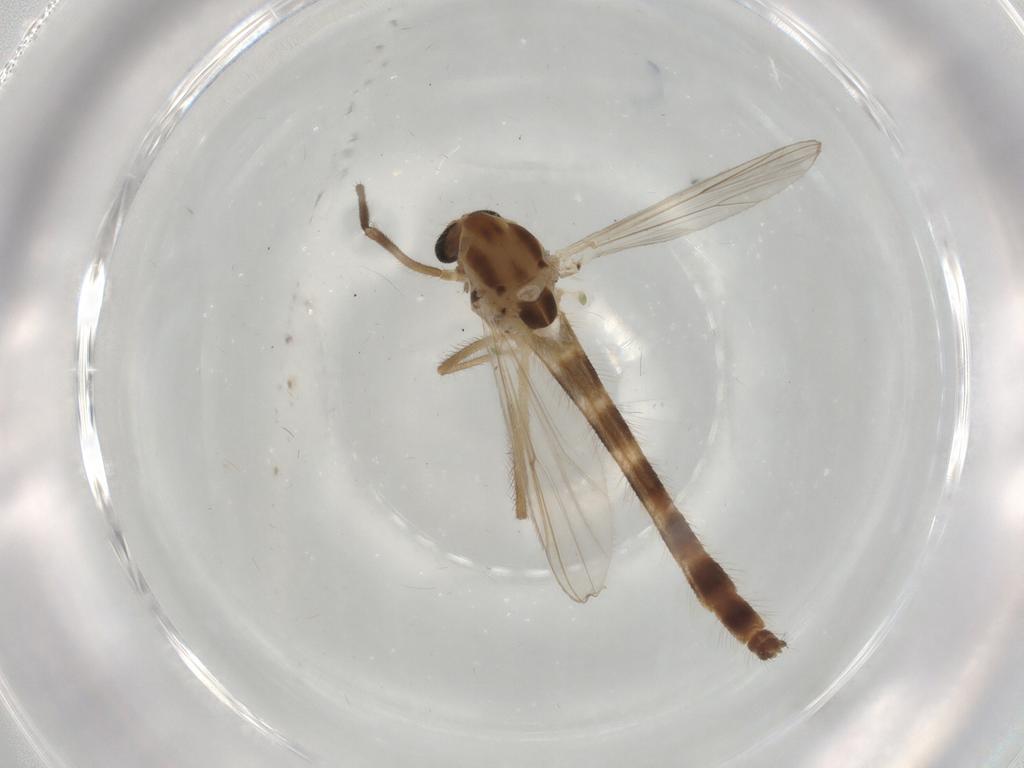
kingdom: Animalia
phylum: Arthropoda
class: Insecta
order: Diptera
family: Chironomidae
